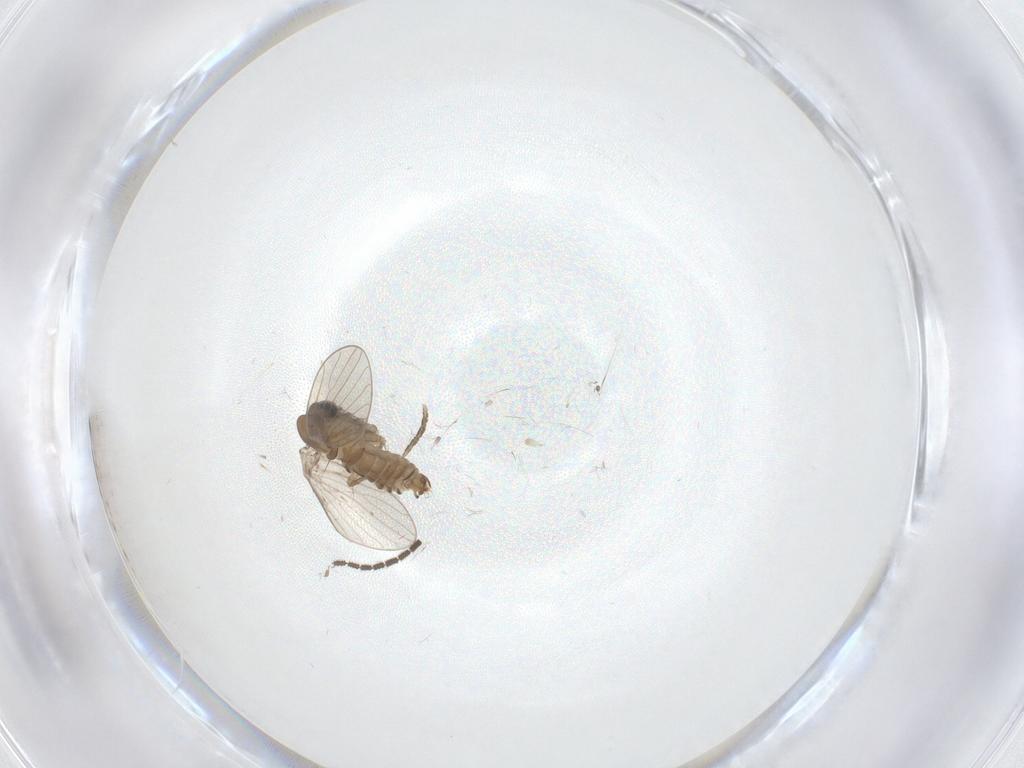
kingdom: Animalia
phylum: Arthropoda
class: Insecta
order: Diptera
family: Sciaridae
